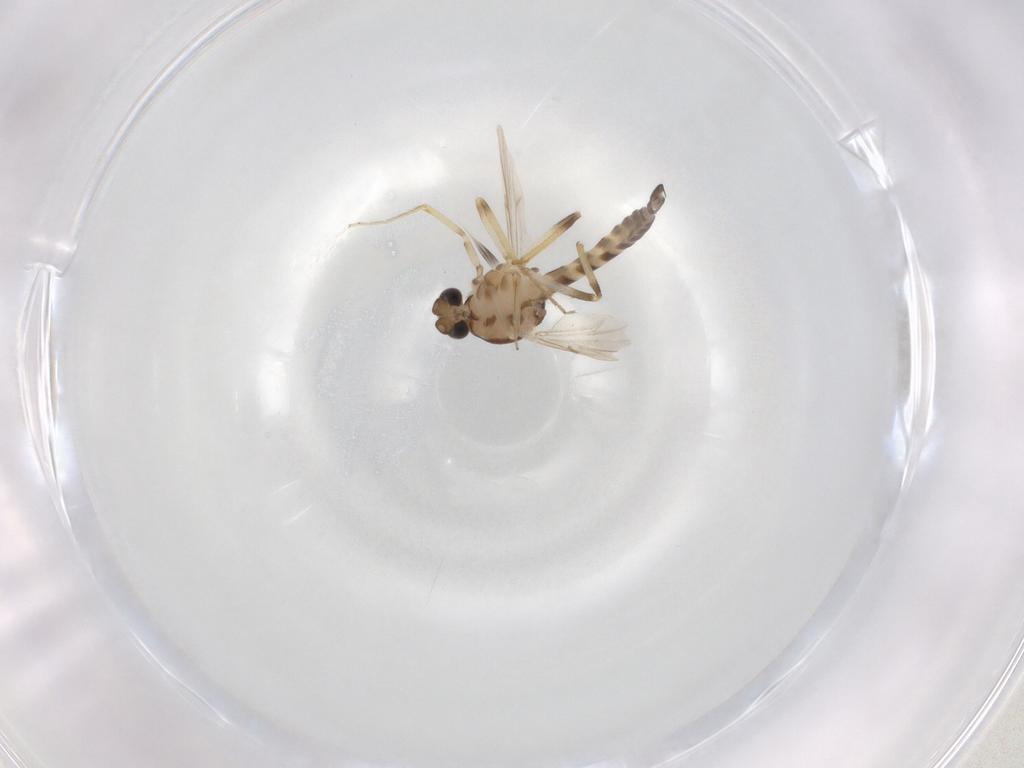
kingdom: Animalia
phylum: Arthropoda
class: Insecta
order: Diptera
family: Ceratopogonidae
